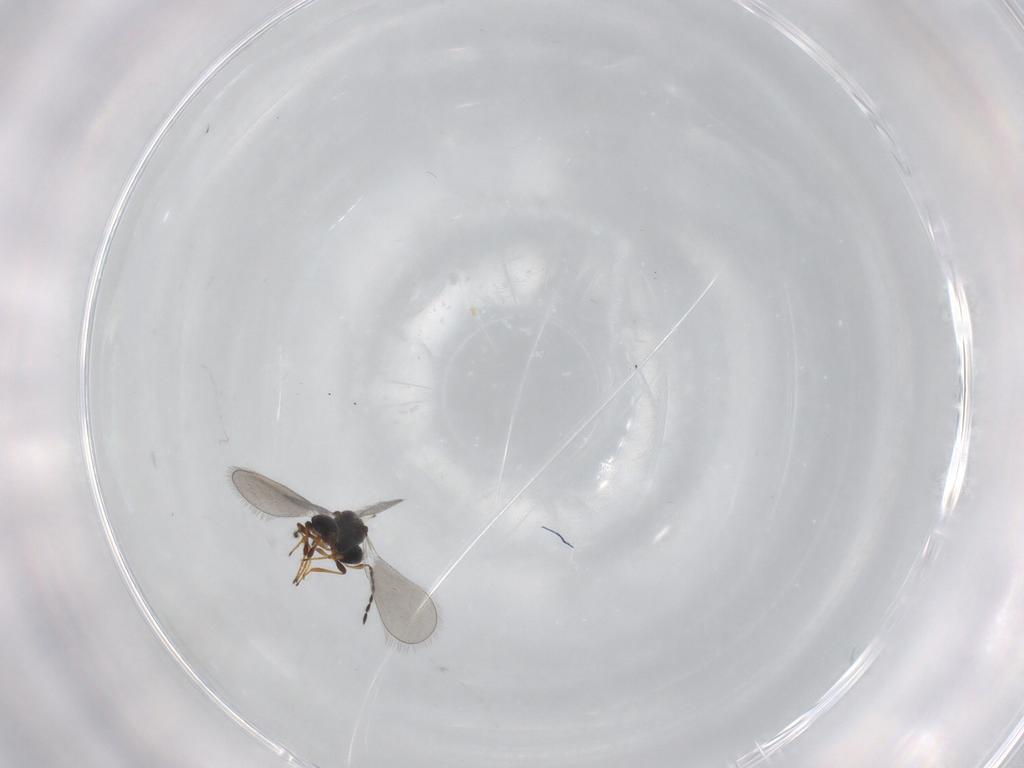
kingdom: Animalia
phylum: Arthropoda
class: Insecta
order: Hymenoptera
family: Platygastridae
